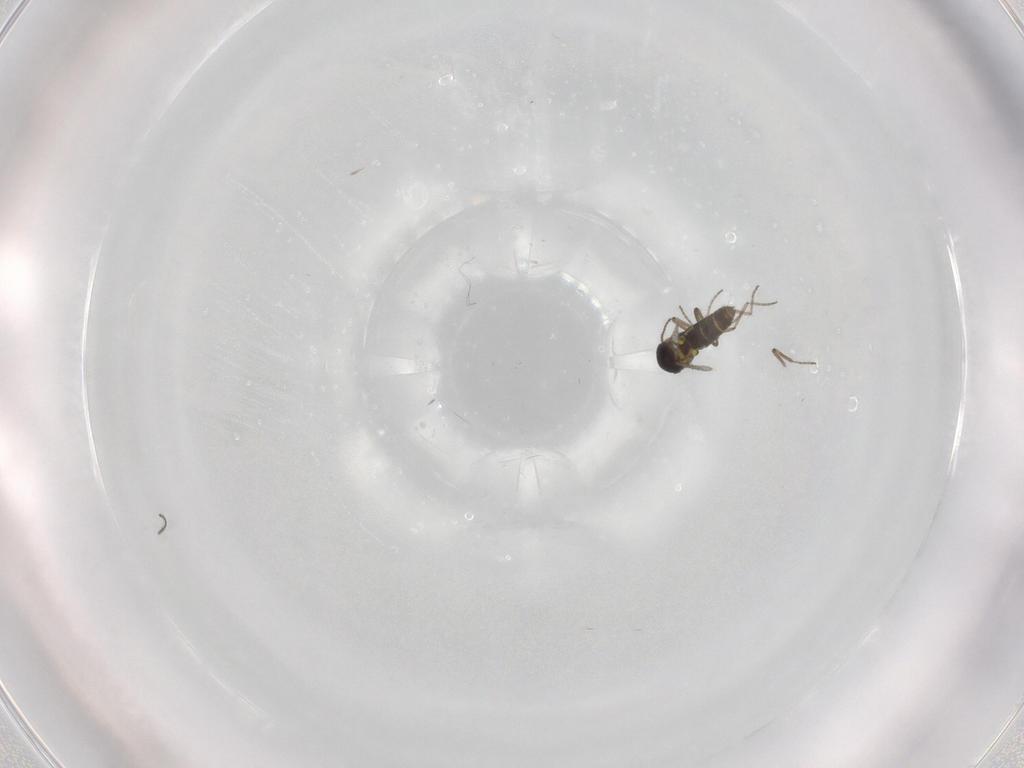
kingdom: Animalia
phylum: Arthropoda
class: Insecta
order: Diptera
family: Ceratopogonidae
